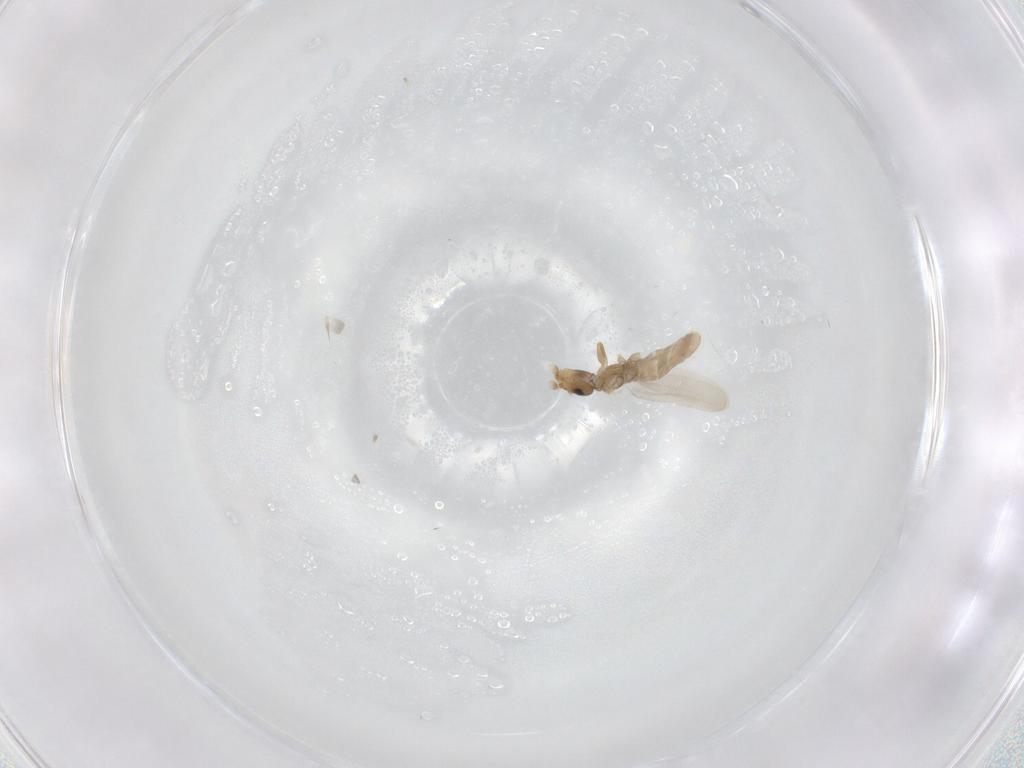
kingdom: Animalia
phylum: Arthropoda
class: Insecta
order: Psocodea
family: Liposcelididae
